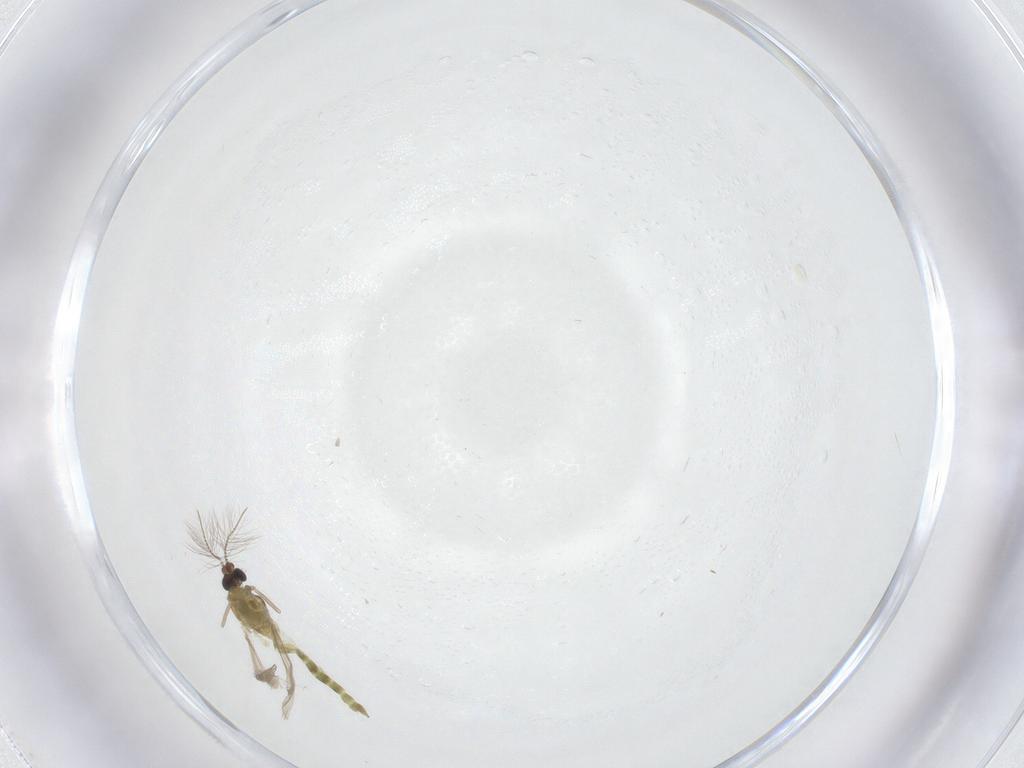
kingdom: Animalia
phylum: Arthropoda
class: Insecta
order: Diptera
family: Chironomidae
